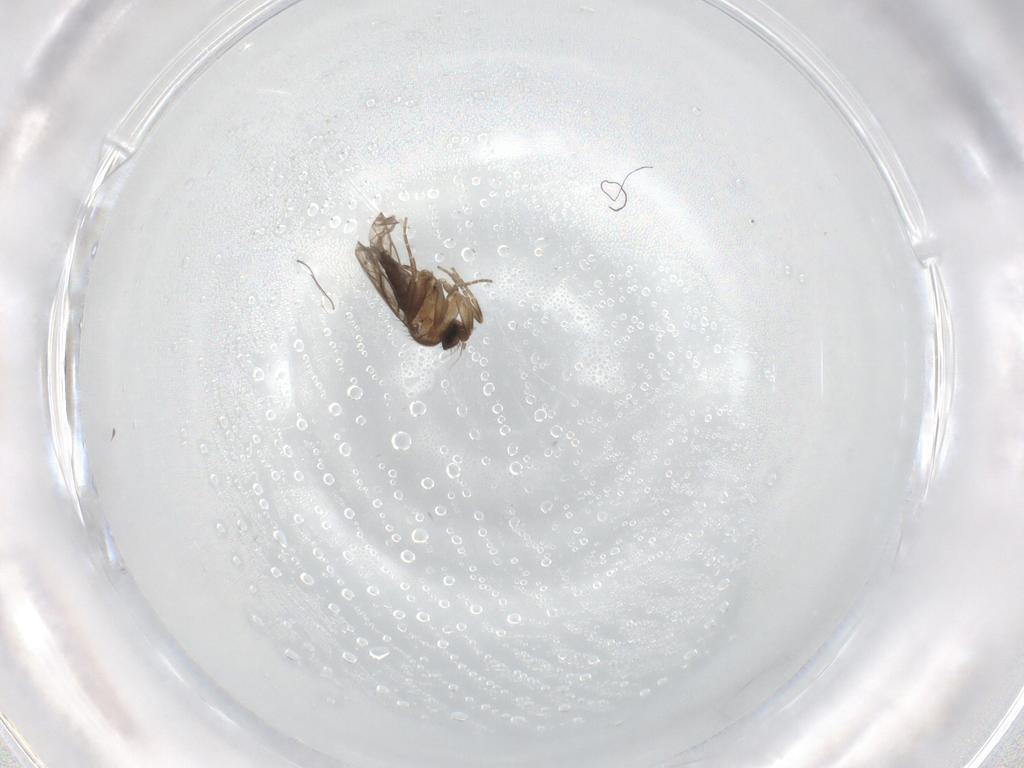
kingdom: Animalia
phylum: Arthropoda
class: Insecta
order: Diptera
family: Phoridae
